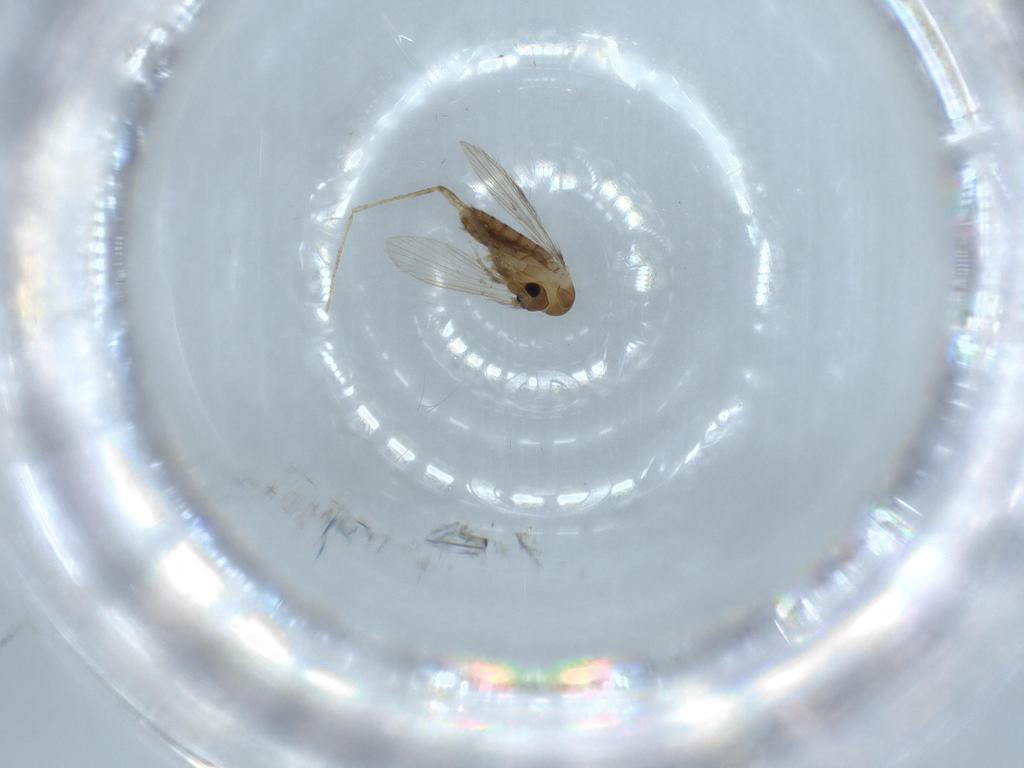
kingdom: Animalia
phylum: Arthropoda
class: Insecta
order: Diptera
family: Psychodidae
